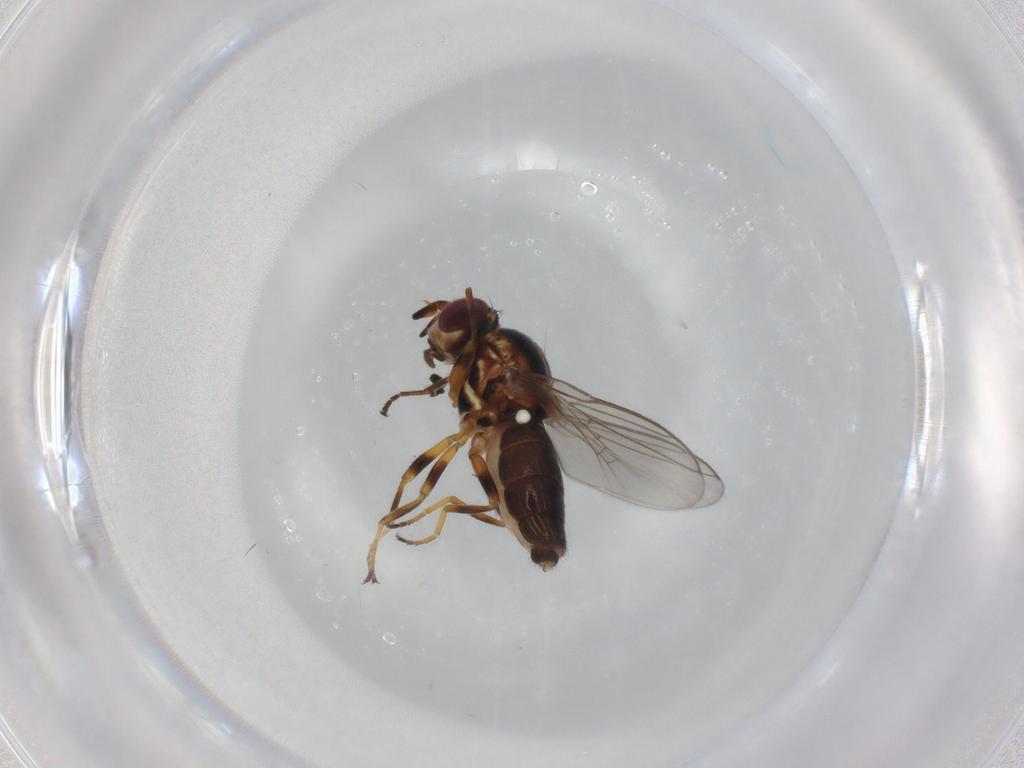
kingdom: Animalia
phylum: Arthropoda
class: Insecta
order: Diptera
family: Chloropidae
